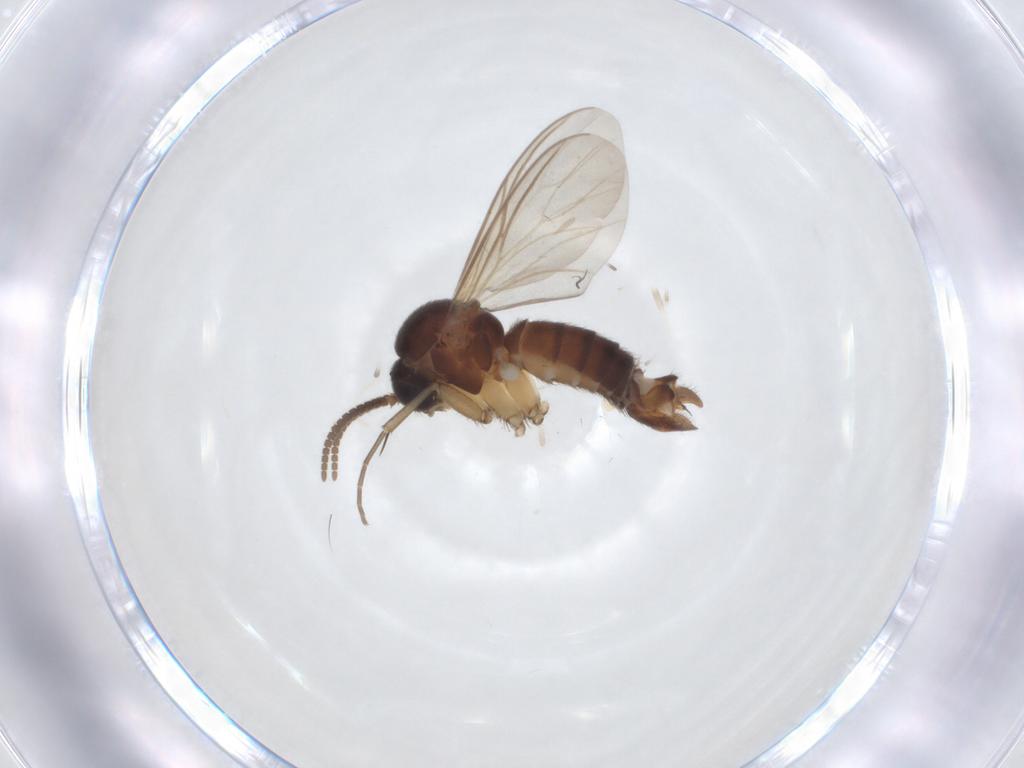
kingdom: Animalia
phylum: Arthropoda
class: Insecta
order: Diptera
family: Mycetophilidae
